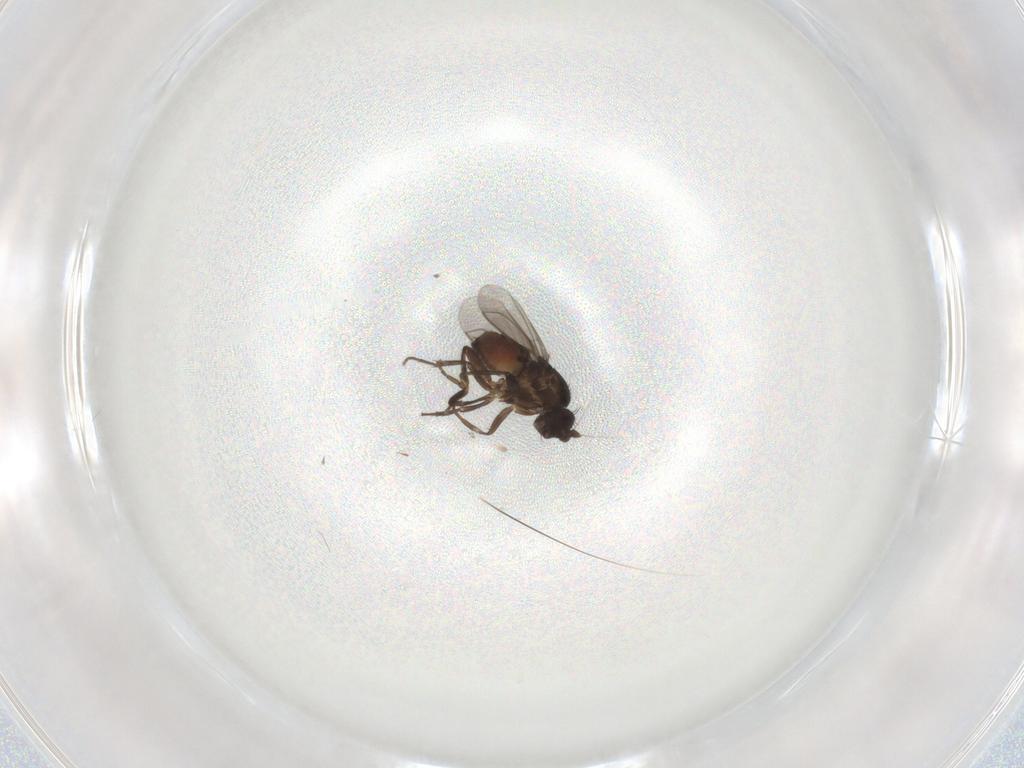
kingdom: Animalia
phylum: Arthropoda
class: Insecta
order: Diptera
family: Sphaeroceridae
